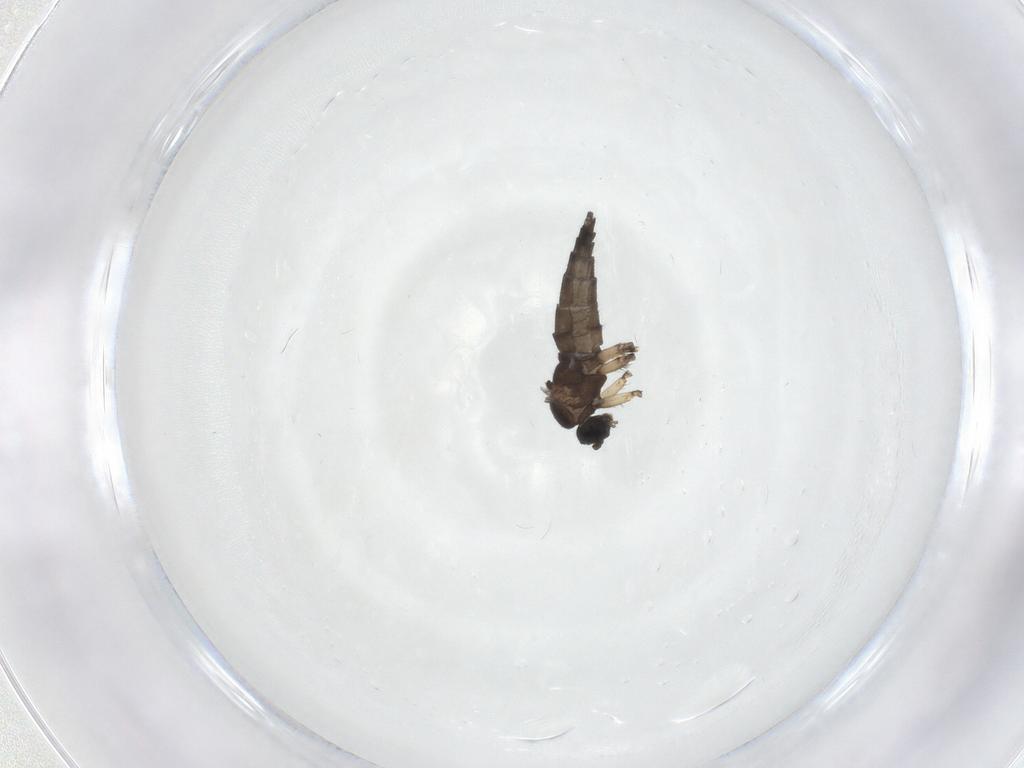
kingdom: Animalia
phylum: Arthropoda
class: Insecta
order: Diptera
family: Sciaridae
